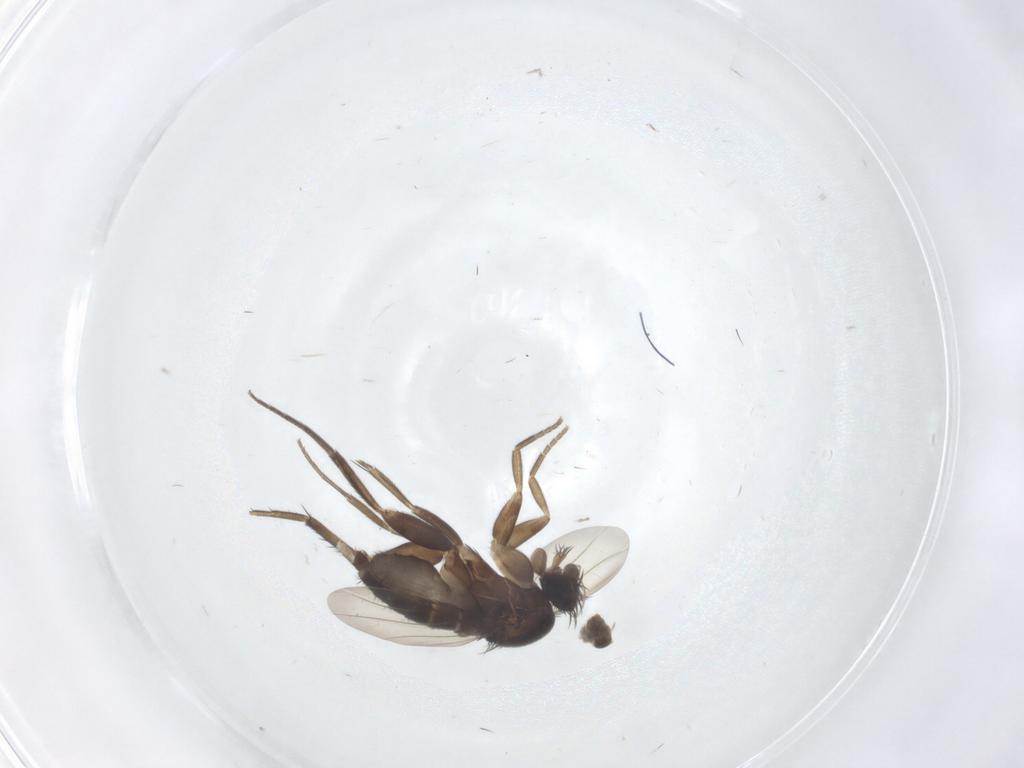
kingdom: Animalia
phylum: Arthropoda
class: Insecta
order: Diptera
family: Phoridae
